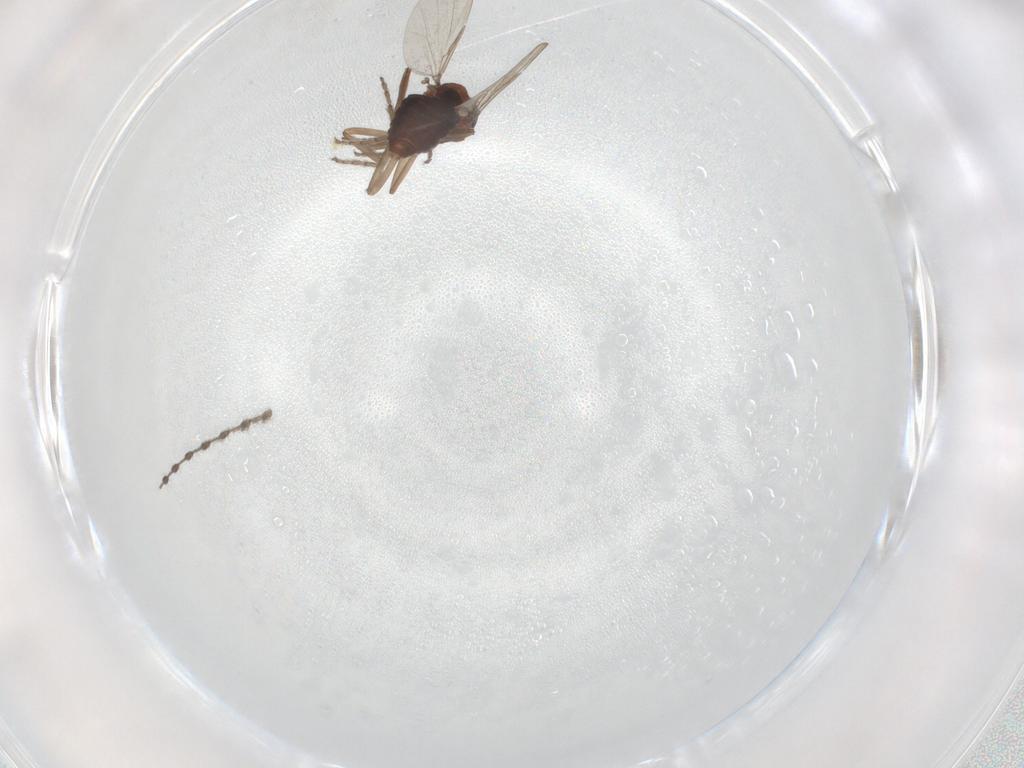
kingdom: Animalia
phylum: Arthropoda
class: Insecta
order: Diptera
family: Ceratopogonidae
